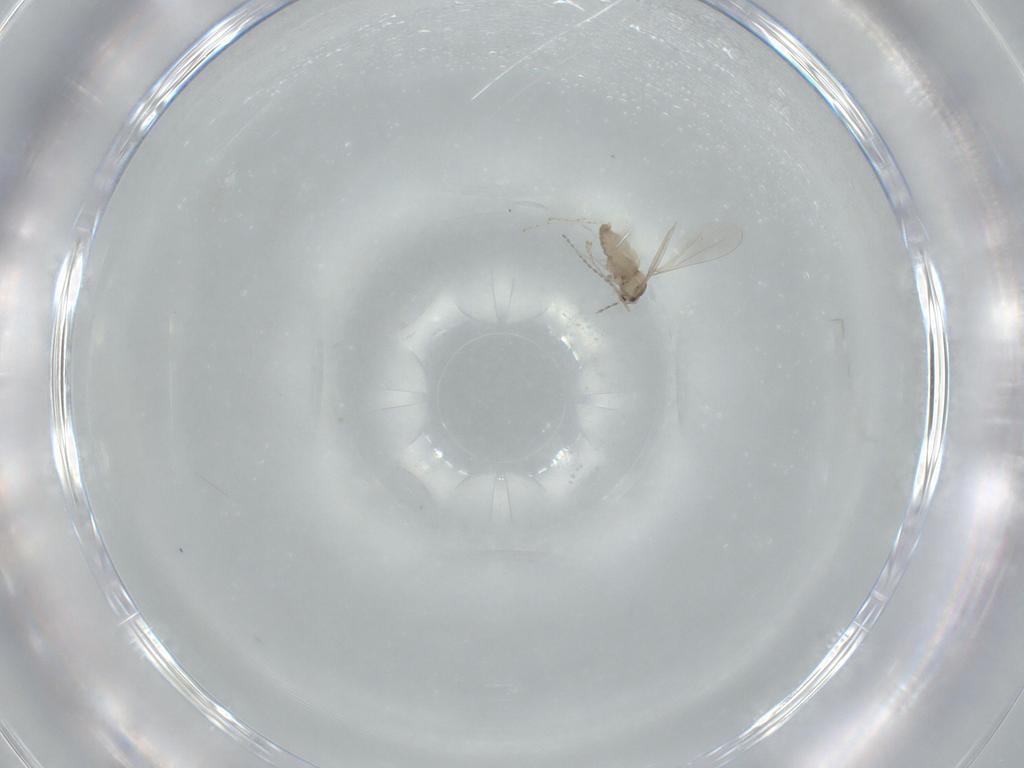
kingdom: Animalia
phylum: Arthropoda
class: Insecta
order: Diptera
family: Cecidomyiidae
